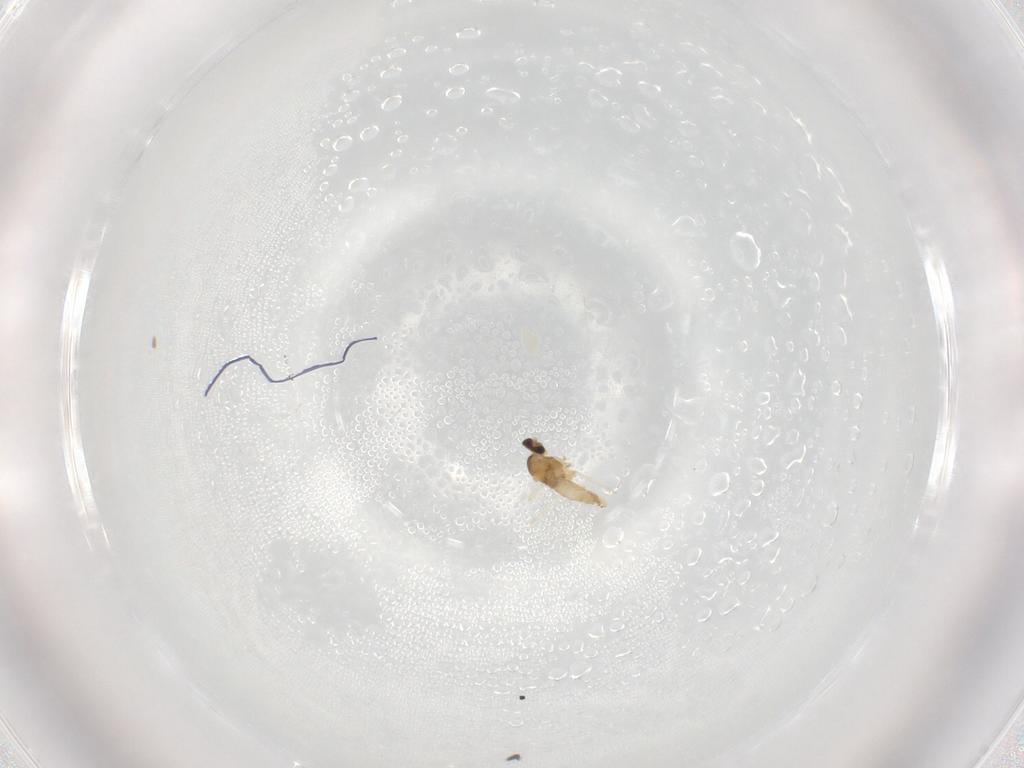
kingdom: Animalia
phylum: Arthropoda
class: Insecta
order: Diptera
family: Cecidomyiidae
